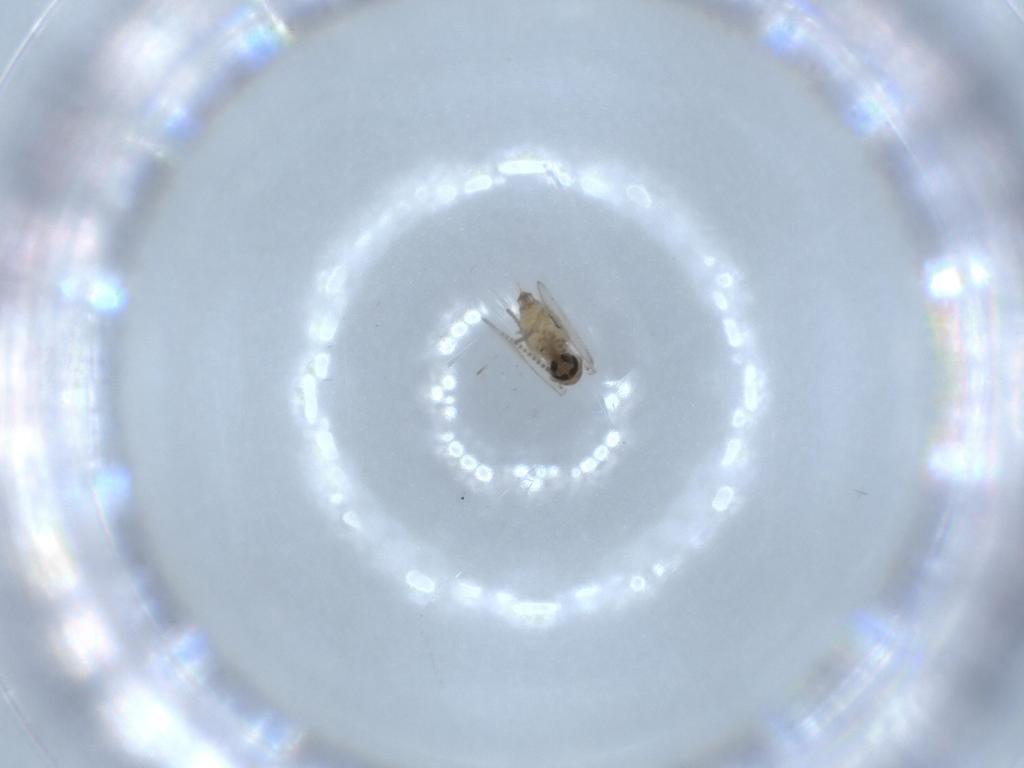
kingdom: Animalia
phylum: Arthropoda
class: Insecta
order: Diptera
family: Psychodidae
